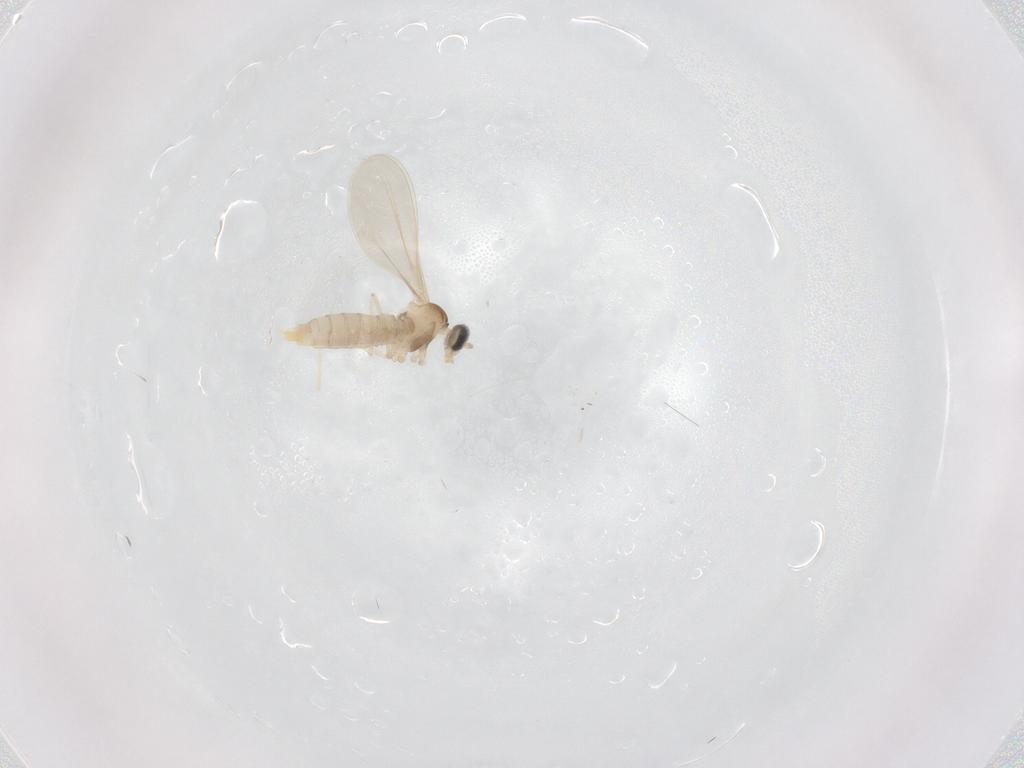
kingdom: Animalia
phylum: Arthropoda
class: Insecta
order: Diptera
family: Cecidomyiidae
